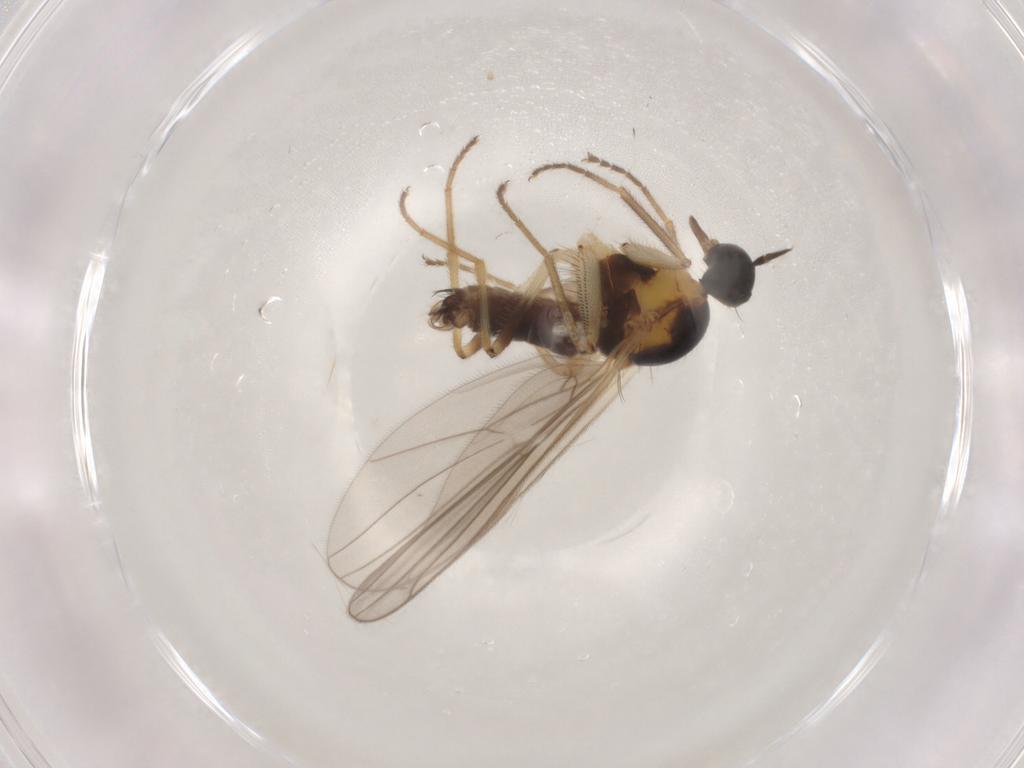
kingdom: Animalia
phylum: Arthropoda
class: Insecta
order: Diptera
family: Hybotidae
